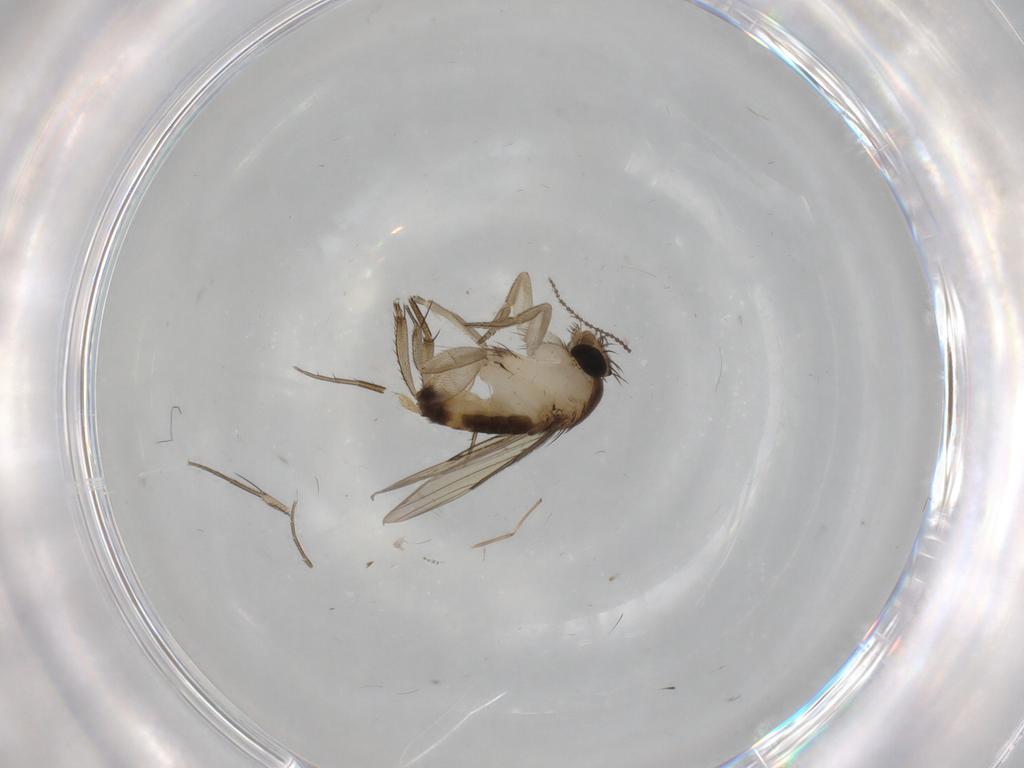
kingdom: Animalia
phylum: Arthropoda
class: Insecta
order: Diptera
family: Phoridae
